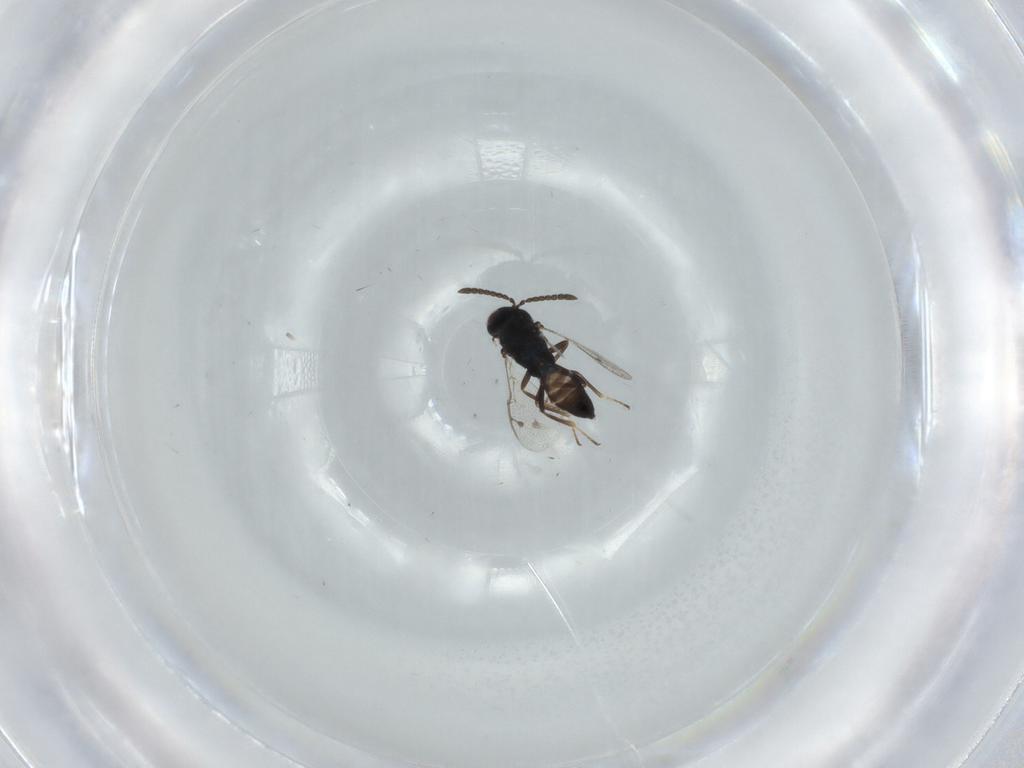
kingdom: Animalia
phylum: Arthropoda
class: Insecta
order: Hymenoptera
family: Pteromalidae
